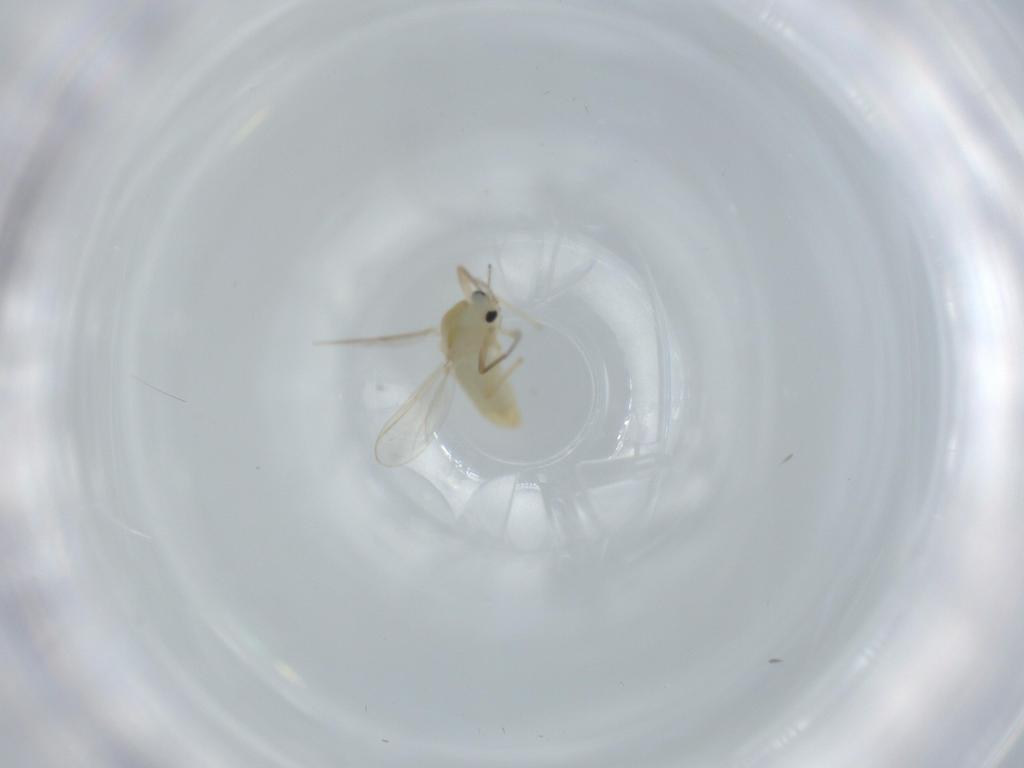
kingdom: Animalia
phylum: Arthropoda
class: Insecta
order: Diptera
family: Chironomidae
